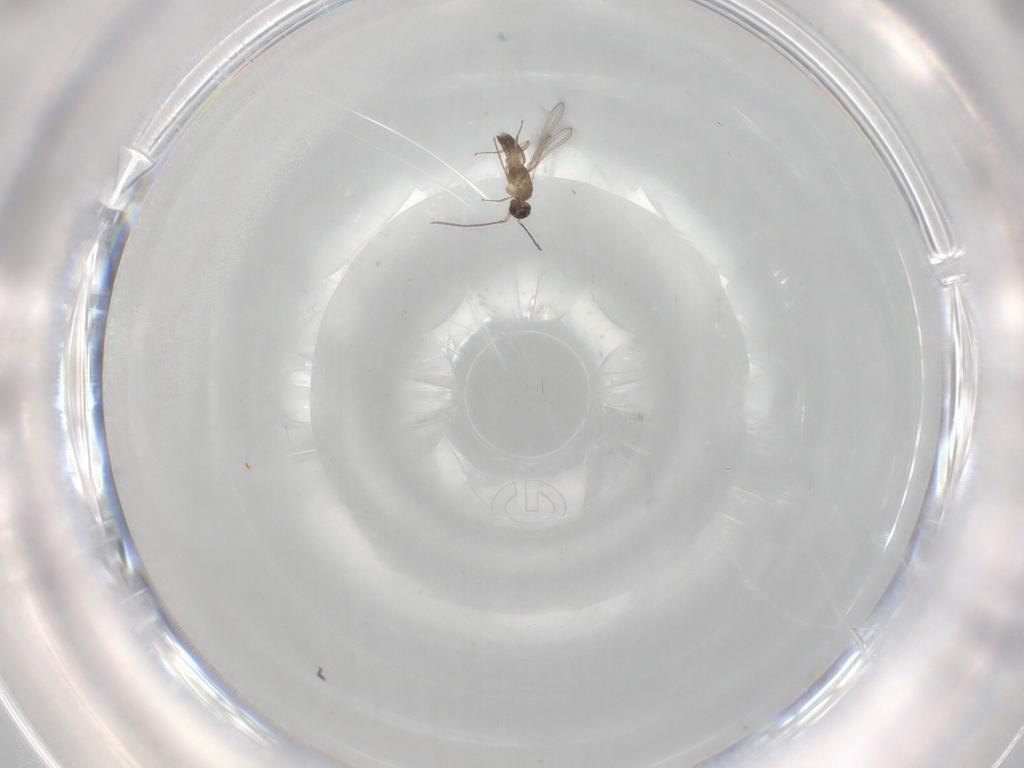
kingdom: Animalia
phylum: Arthropoda
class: Insecta
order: Hymenoptera
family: Mymaridae
